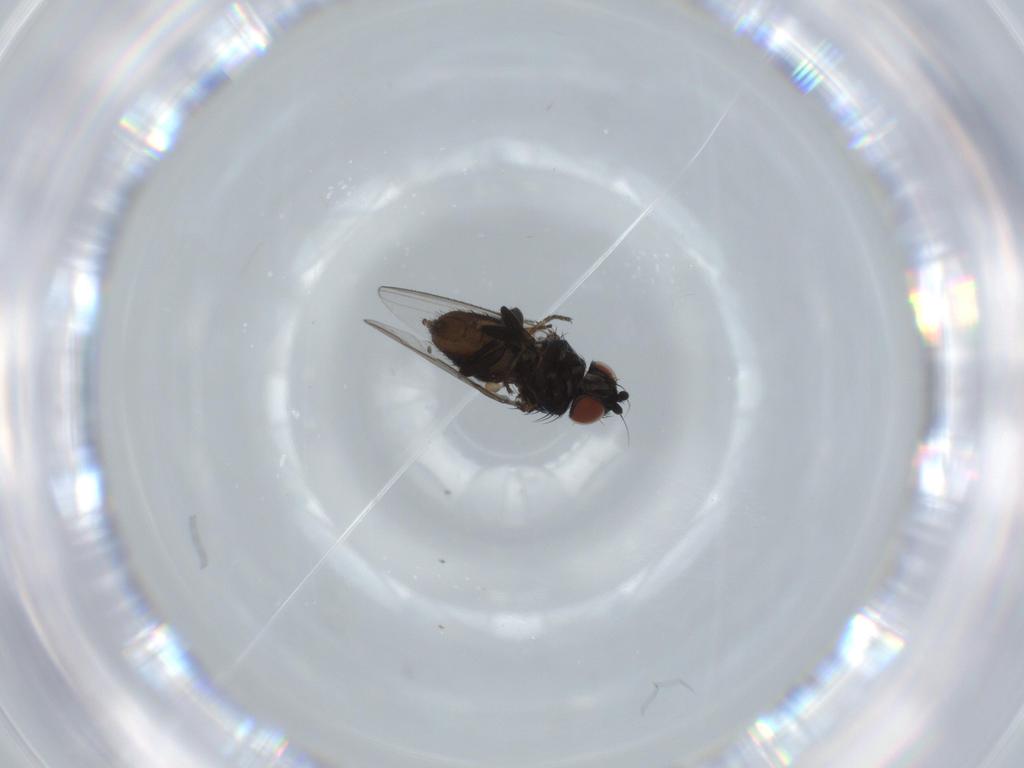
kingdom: Animalia
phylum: Arthropoda
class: Insecta
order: Diptera
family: Milichiidae
